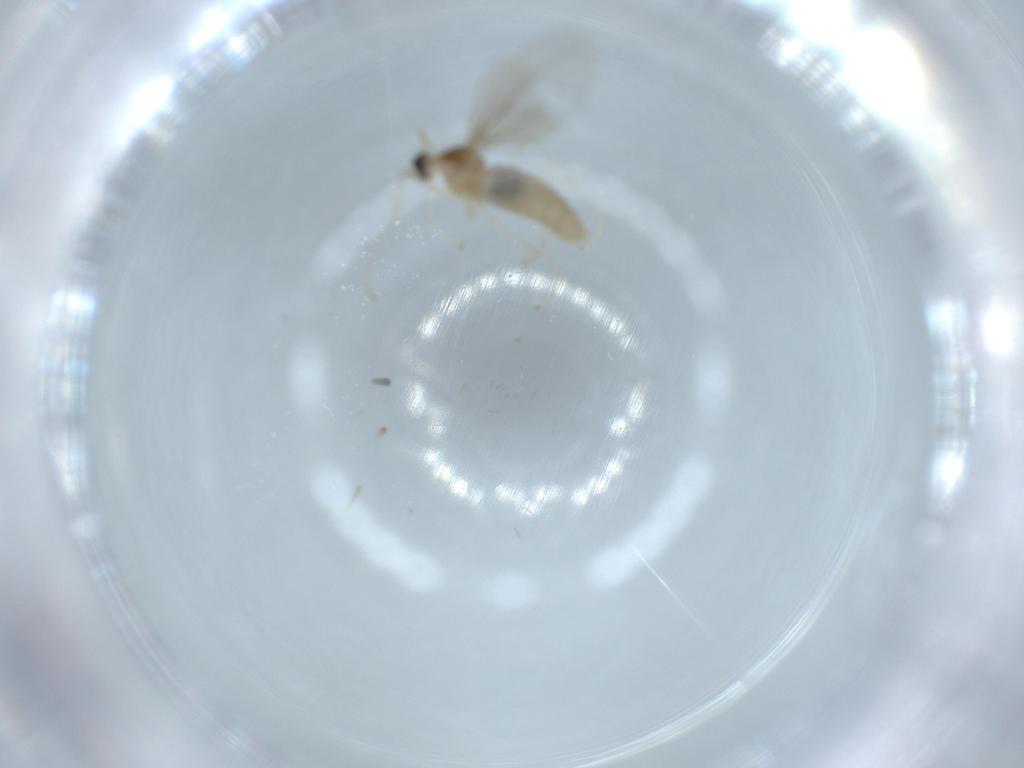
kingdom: Animalia
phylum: Arthropoda
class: Insecta
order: Diptera
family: Cecidomyiidae
